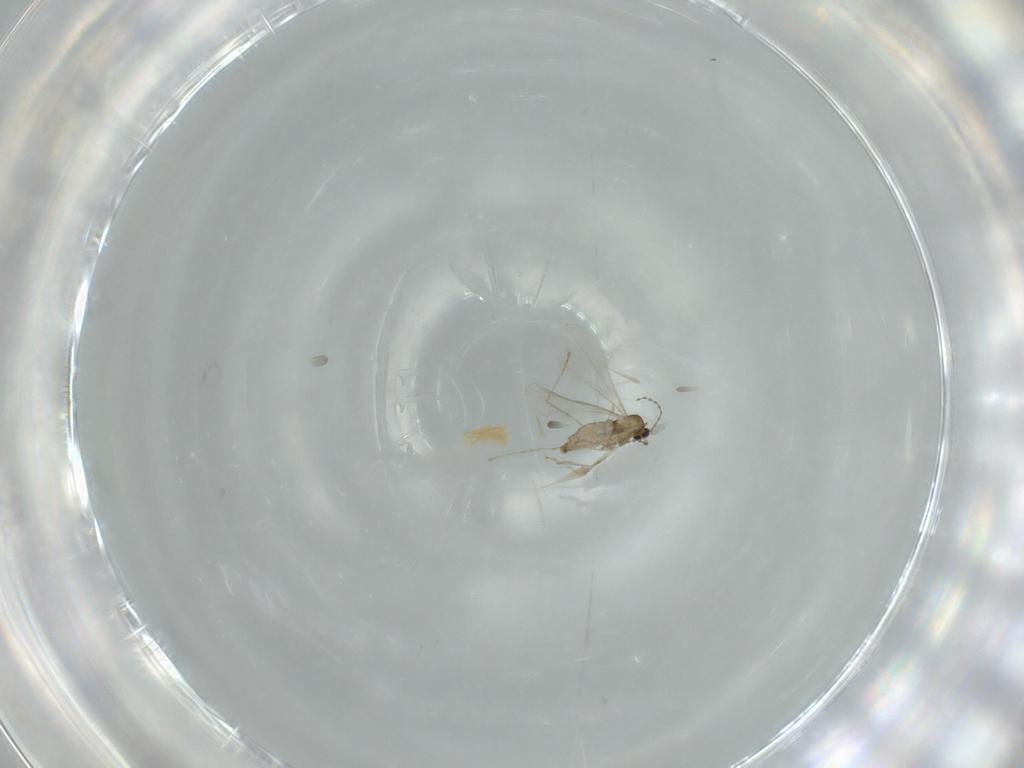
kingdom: Animalia
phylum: Arthropoda
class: Insecta
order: Diptera
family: Cecidomyiidae
